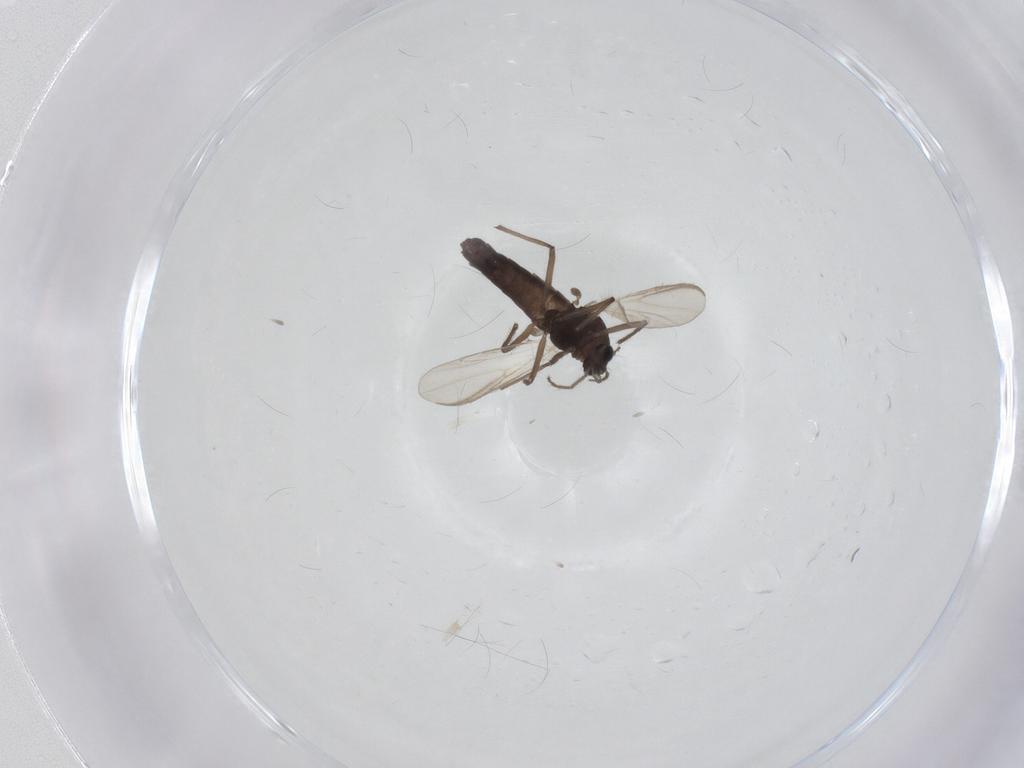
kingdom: Animalia
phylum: Arthropoda
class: Insecta
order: Diptera
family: Chironomidae
